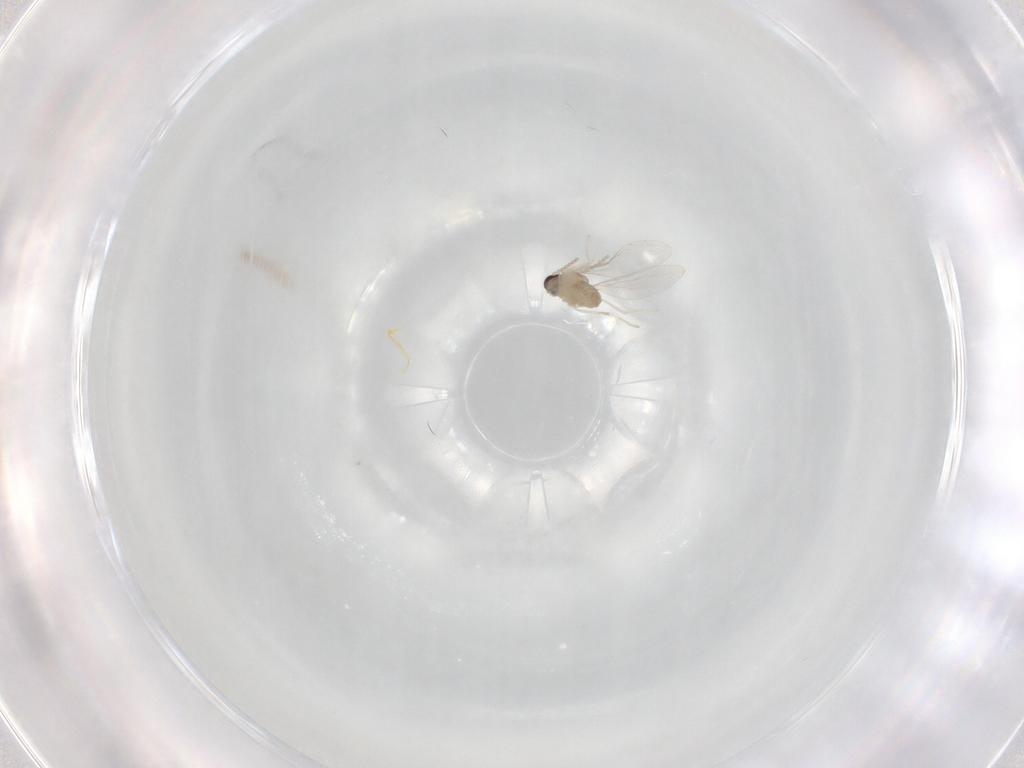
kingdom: Animalia
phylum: Arthropoda
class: Insecta
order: Diptera
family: Cecidomyiidae
